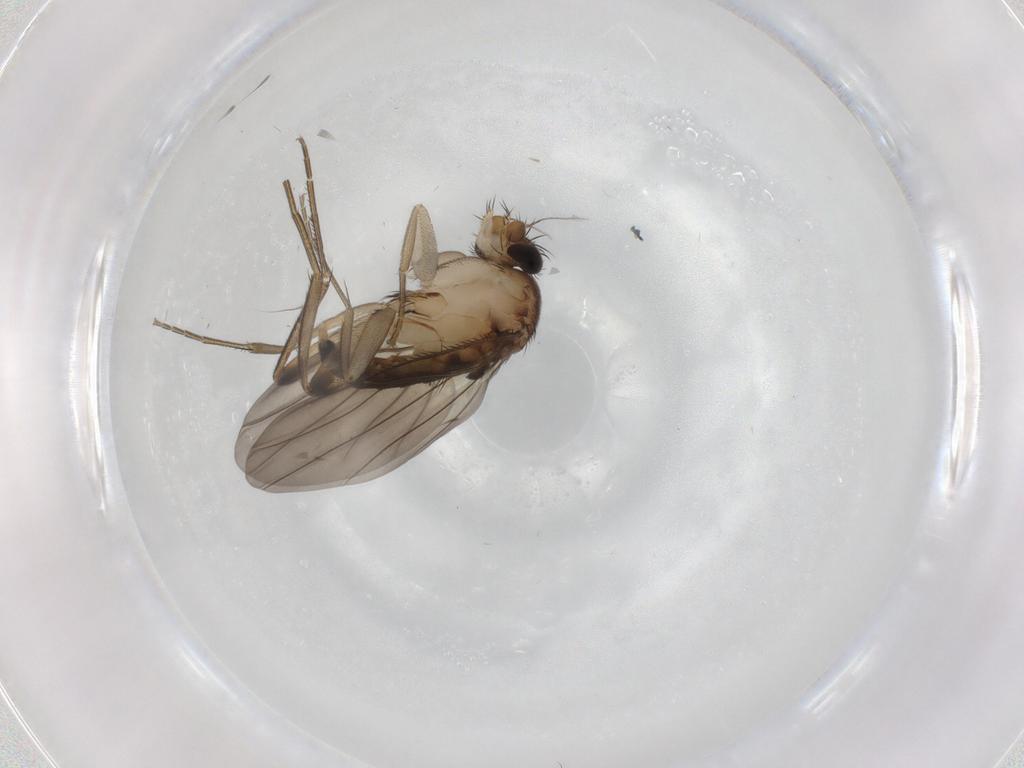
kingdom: Animalia
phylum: Arthropoda
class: Insecta
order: Diptera
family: Phoridae
